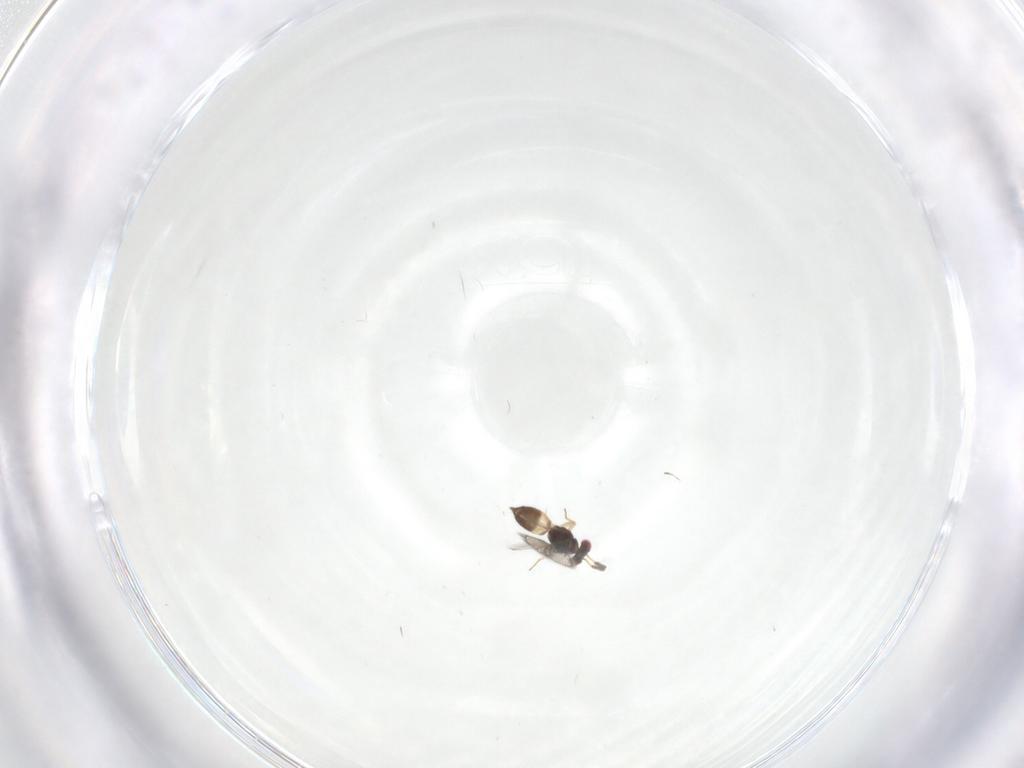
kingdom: Animalia
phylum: Arthropoda
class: Insecta
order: Hymenoptera
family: Eulophidae
